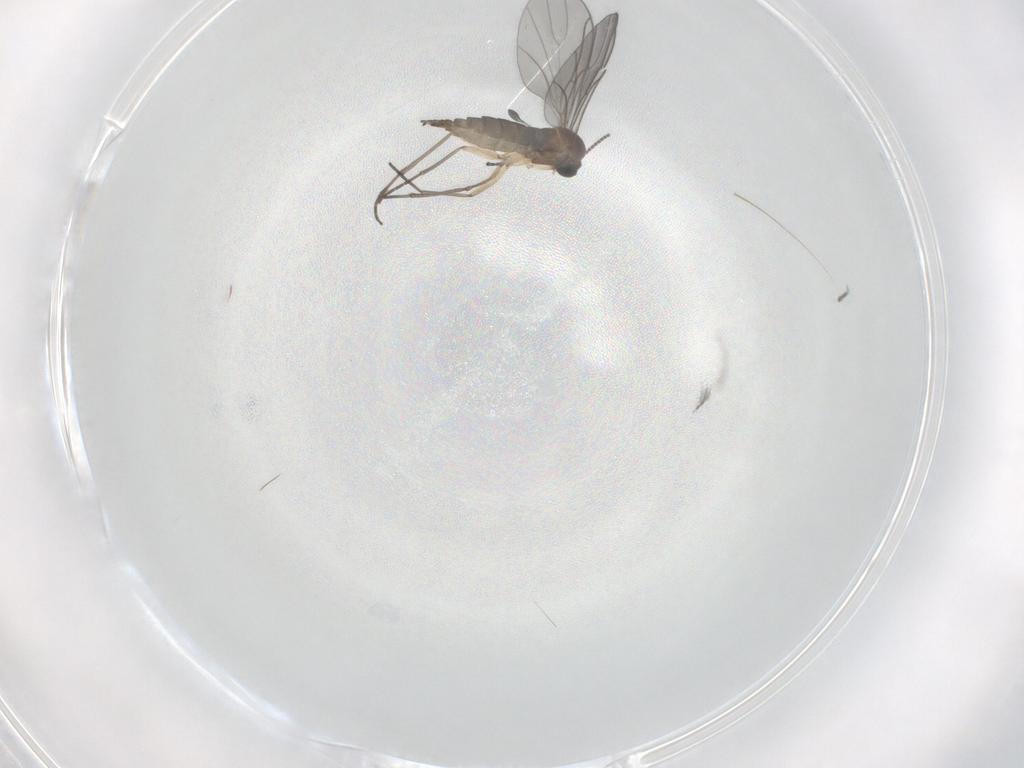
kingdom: Animalia
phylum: Arthropoda
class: Insecta
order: Diptera
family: Sciaridae
